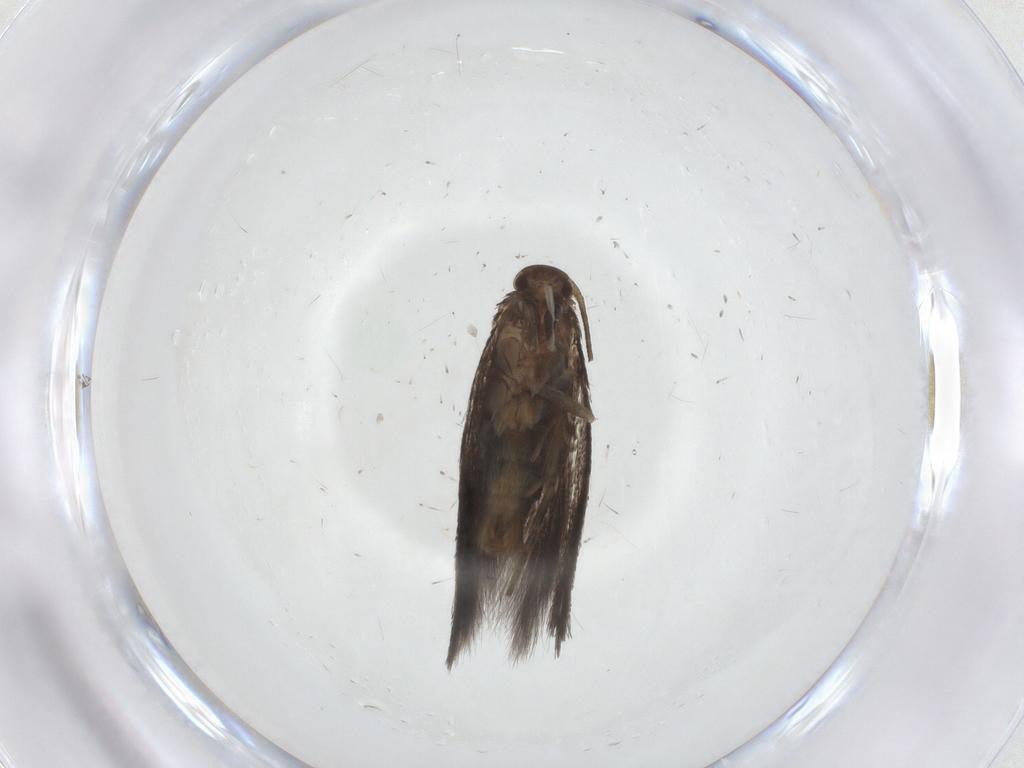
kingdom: Animalia
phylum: Arthropoda
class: Insecta
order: Lepidoptera
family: Elachistidae
